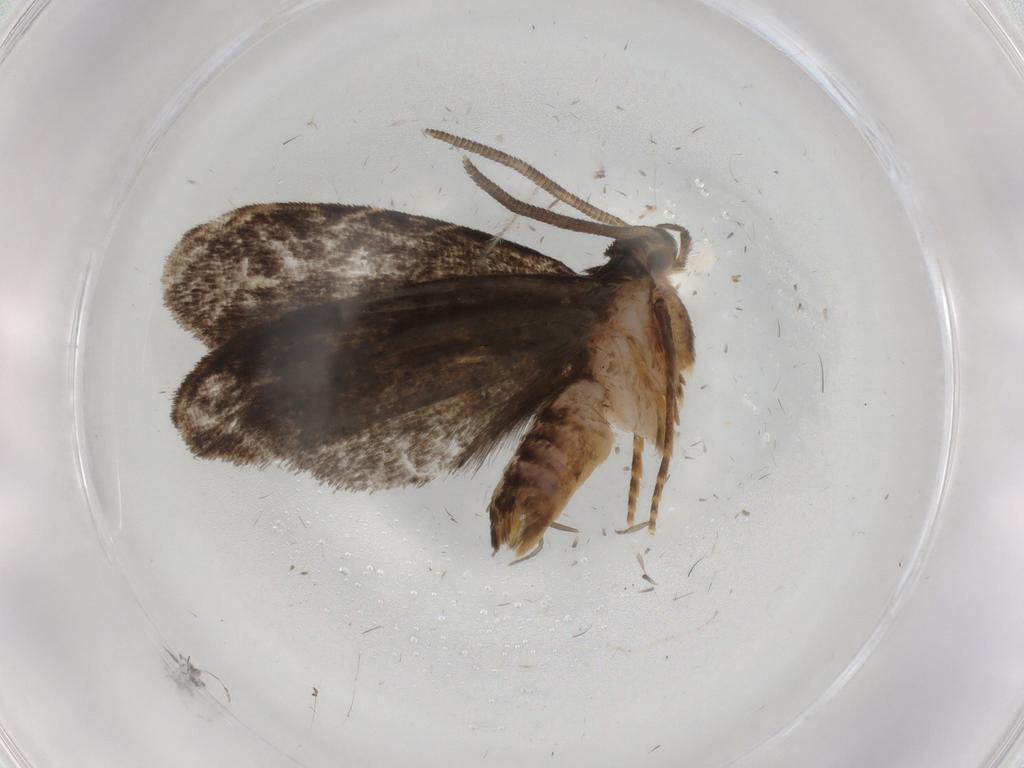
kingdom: Animalia
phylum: Arthropoda
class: Insecta
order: Lepidoptera
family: Dryadaulidae
